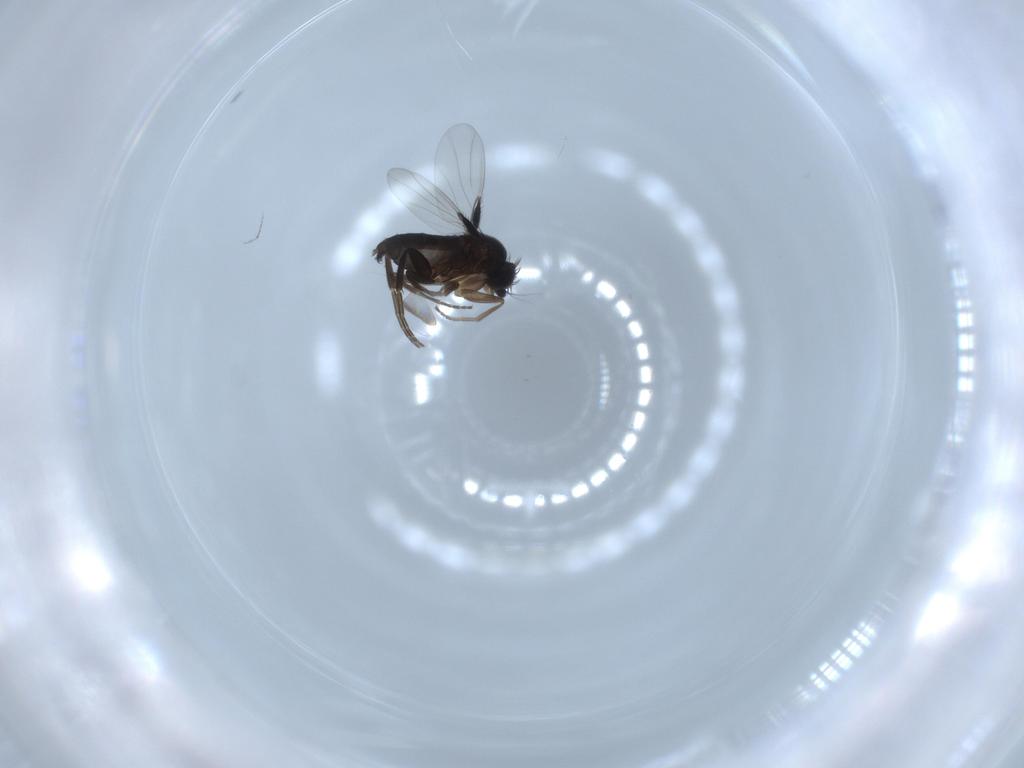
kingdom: Animalia
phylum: Arthropoda
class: Insecta
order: Diptera
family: Phoridae
